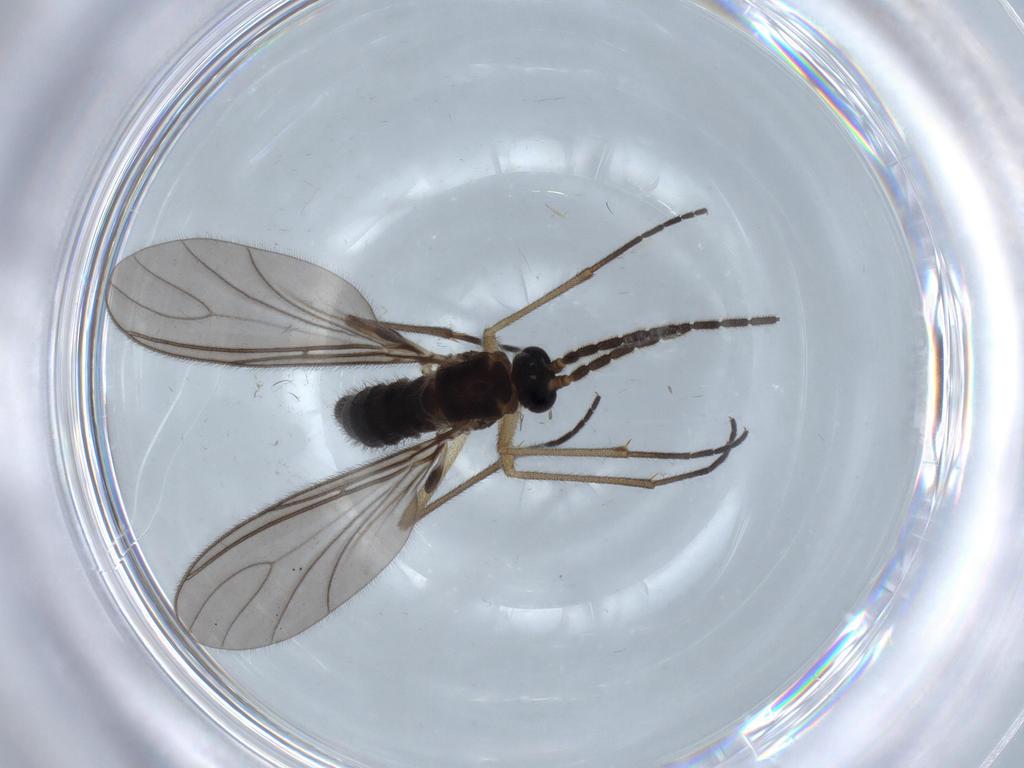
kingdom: Animalia
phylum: Arthropoda
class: Insecta
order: Diptera
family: Sciaridae
